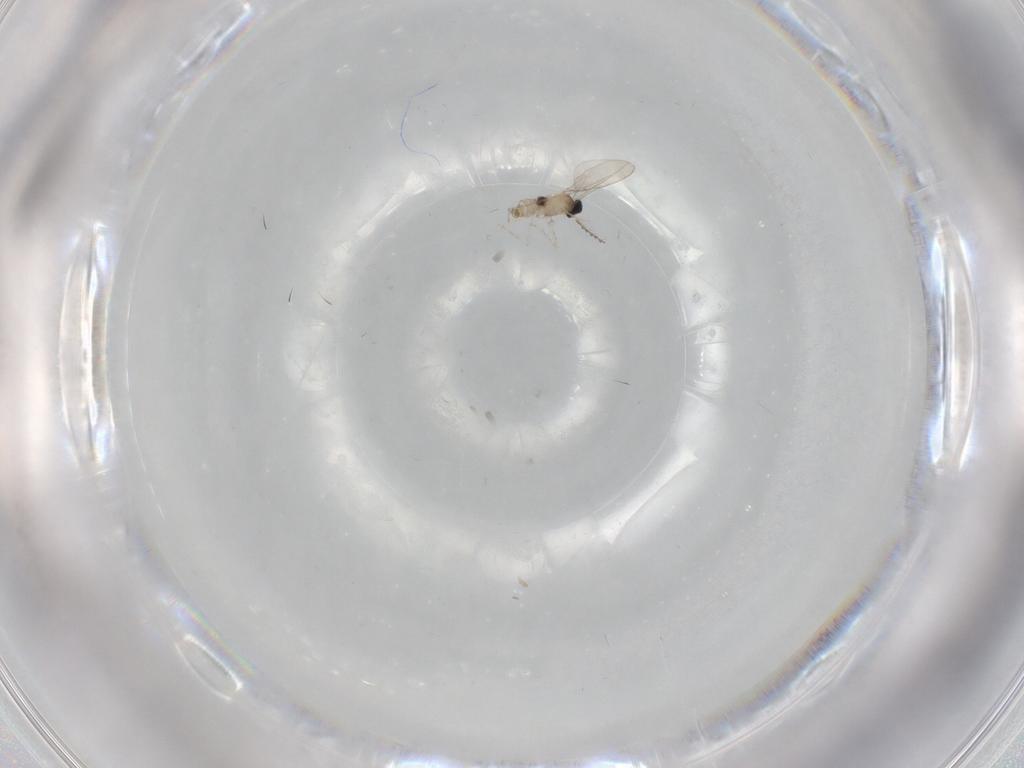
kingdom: Animalia
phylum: Arthropoda
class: Insecta
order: Diptera
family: Cecidomyiidae
